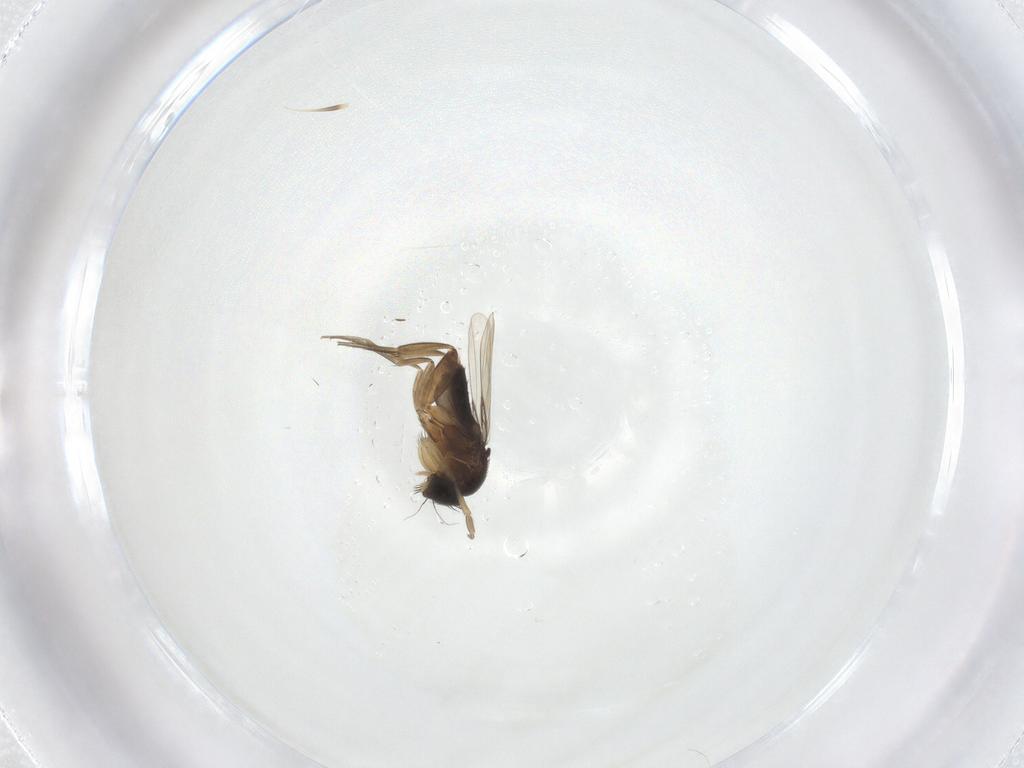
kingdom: Animalia
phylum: Arthropoda
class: Insecta
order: Diptera
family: Phoridae
